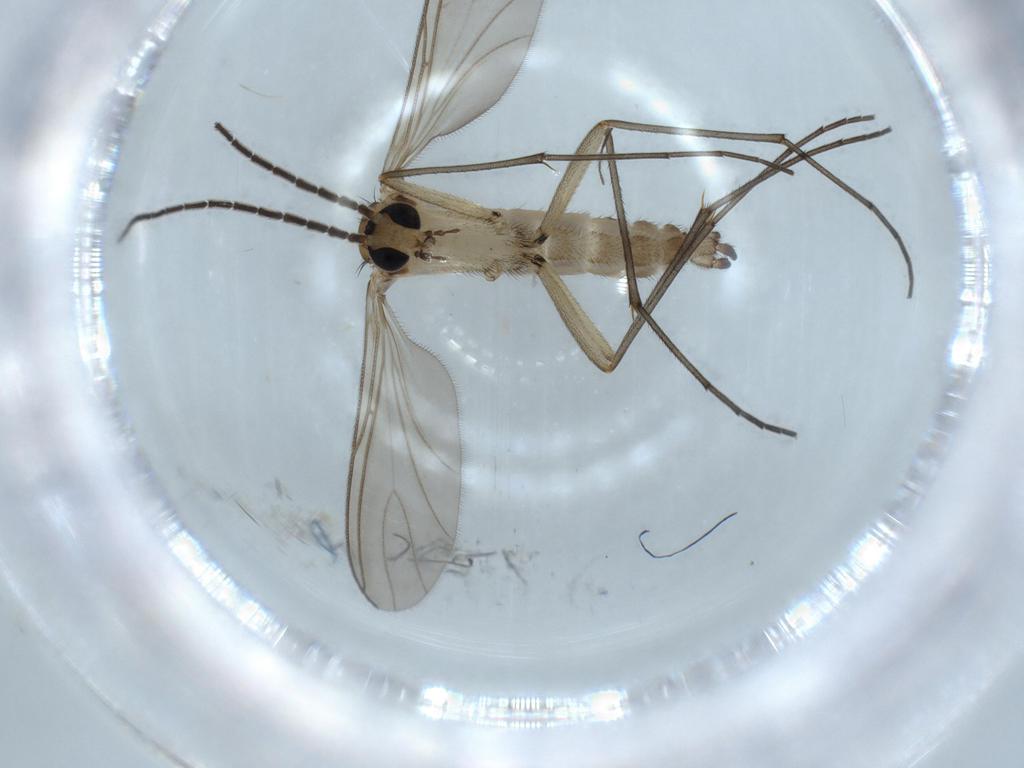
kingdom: Animalia
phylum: Arthropoda
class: Insecta
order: Diptera
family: Sciaridae
